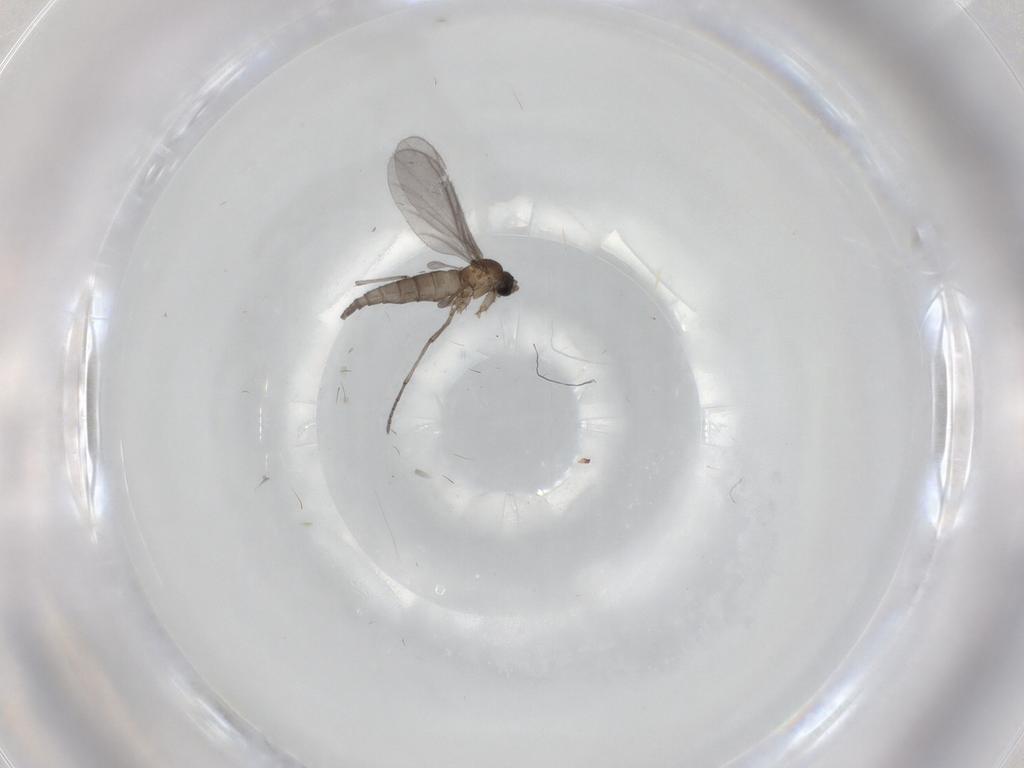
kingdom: Animalia
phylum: Arthropoda
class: Insecta
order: Diptera
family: Sciaridae
